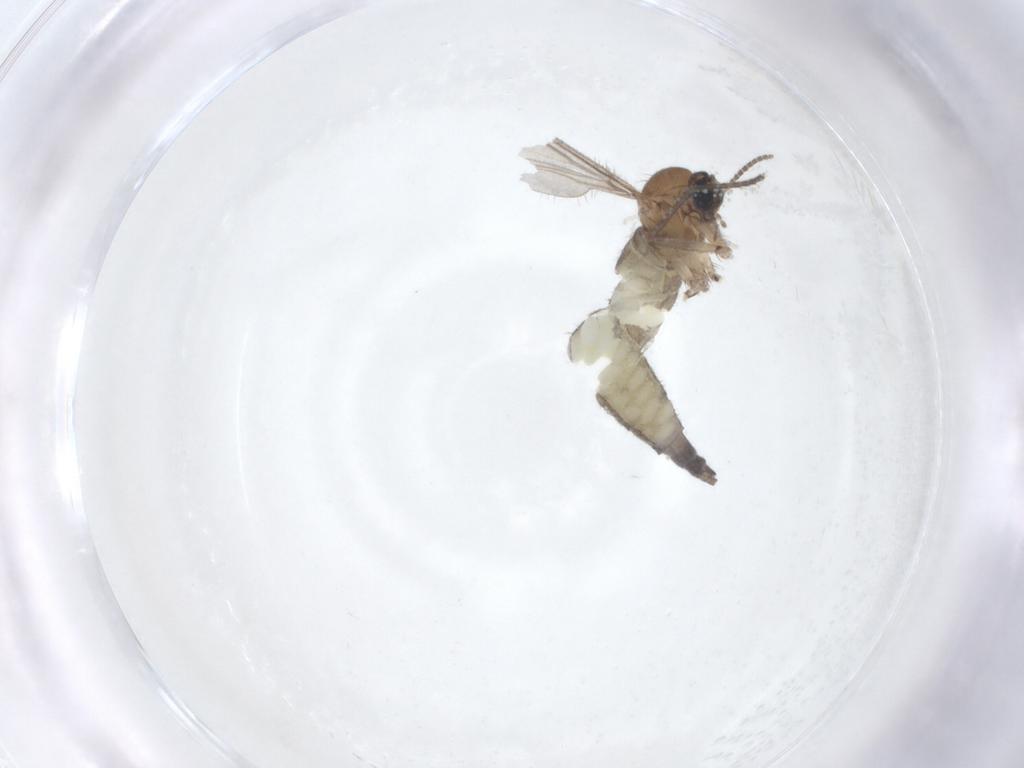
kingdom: Animalia
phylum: Arthropoda
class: Insecta
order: Diptera
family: Sciaridae
